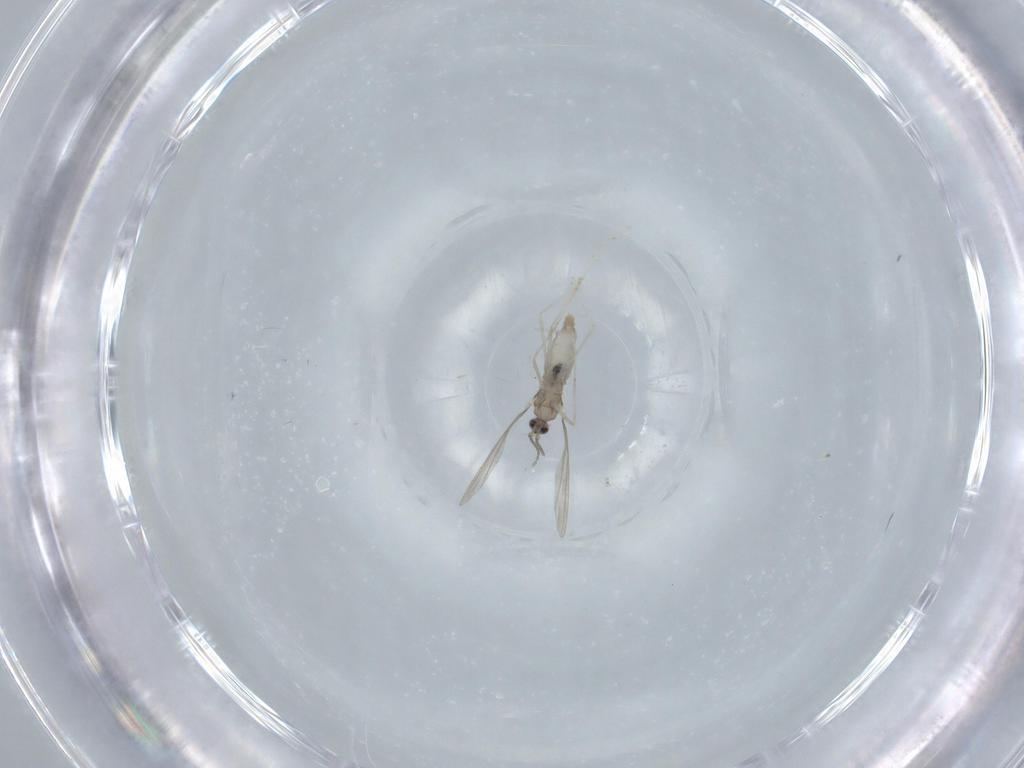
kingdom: Animalia
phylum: Arthropoda
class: Insecta
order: Diptera
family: Cecidomyiidae
